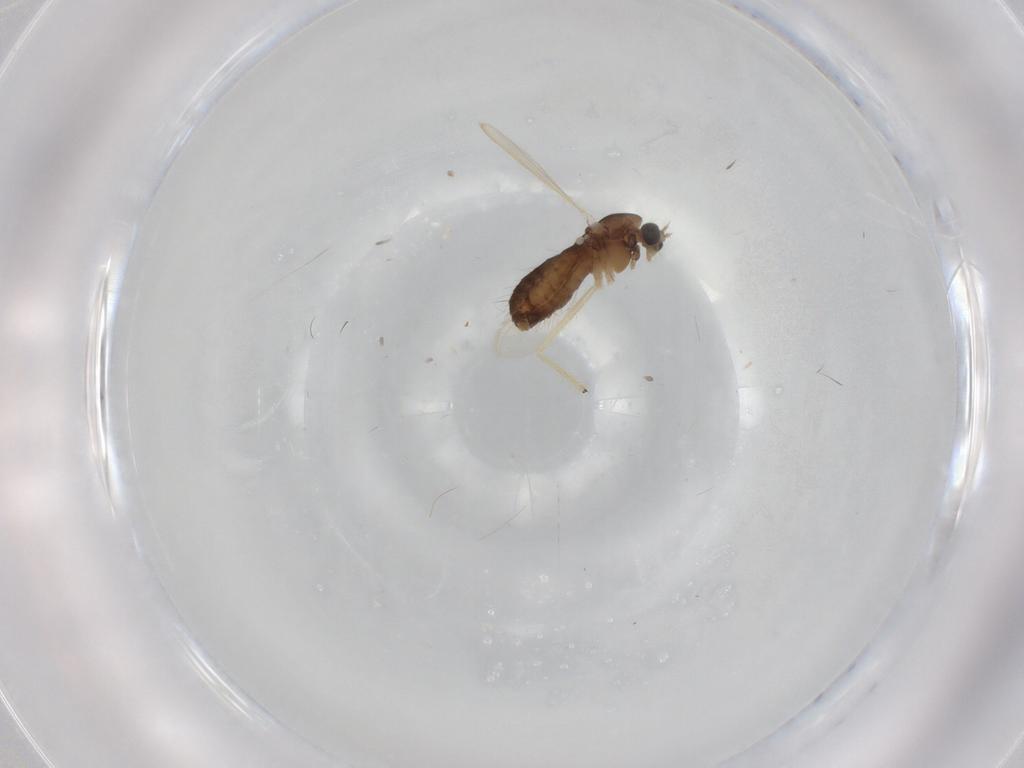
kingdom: Animalia
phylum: Arthropoda
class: Insecta
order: Diptera
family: Chironomidae
